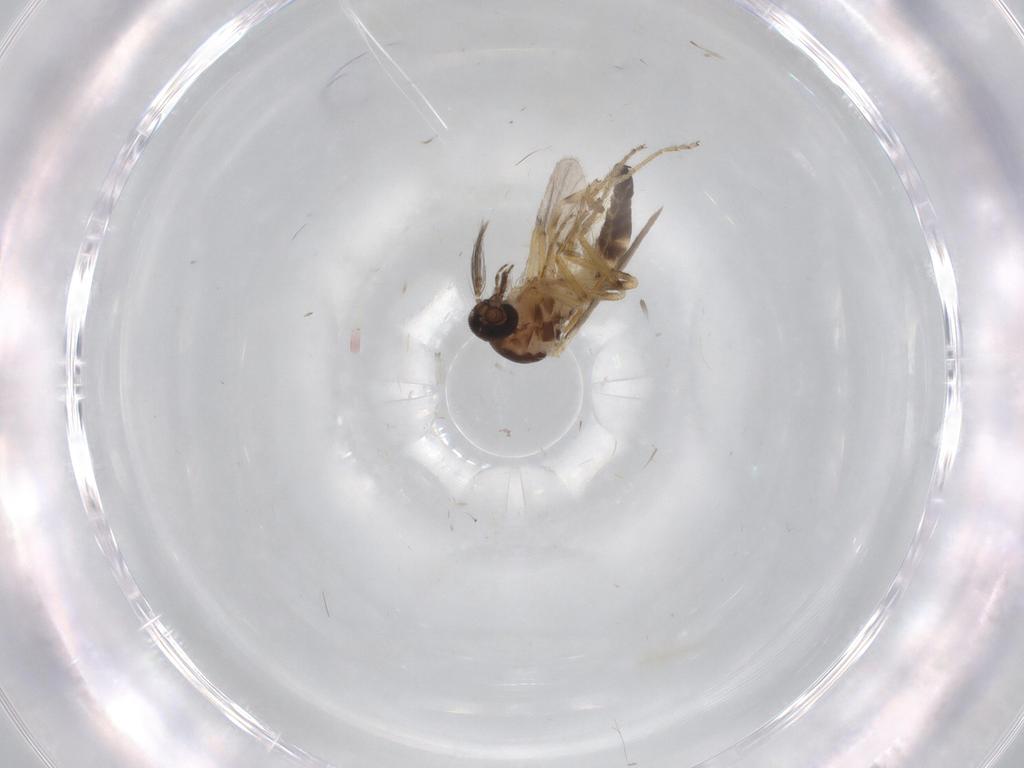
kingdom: Animalia
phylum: Arthropoda
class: Insecta
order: Diptera
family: Ceratopogonidae
